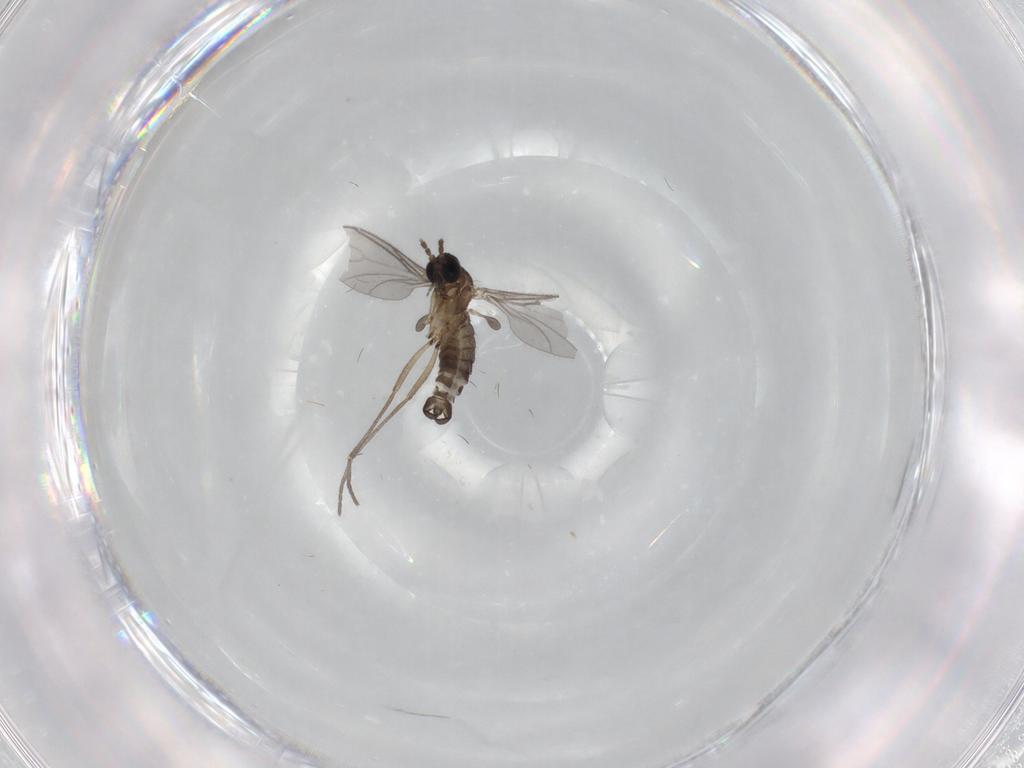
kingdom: Animalia
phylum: Arthropoda
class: Insecta
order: Diptera
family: Sciaridae
